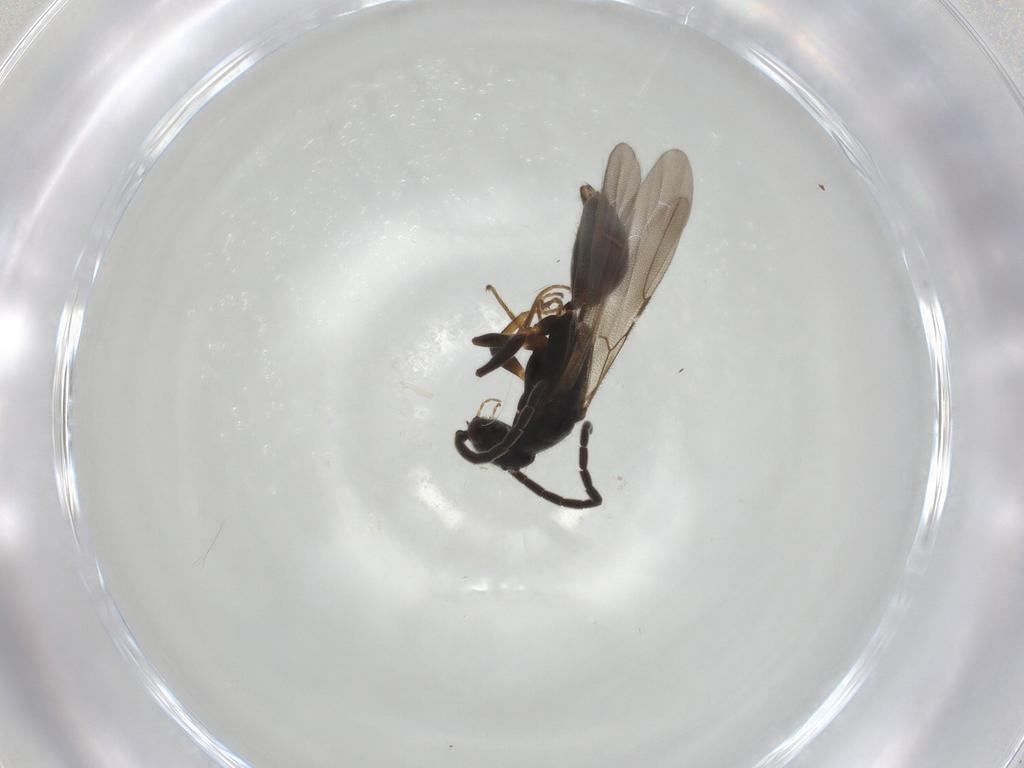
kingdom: Animalia
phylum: Arthropoda
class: Insecta
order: Hymenoptera
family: Bethylidae
